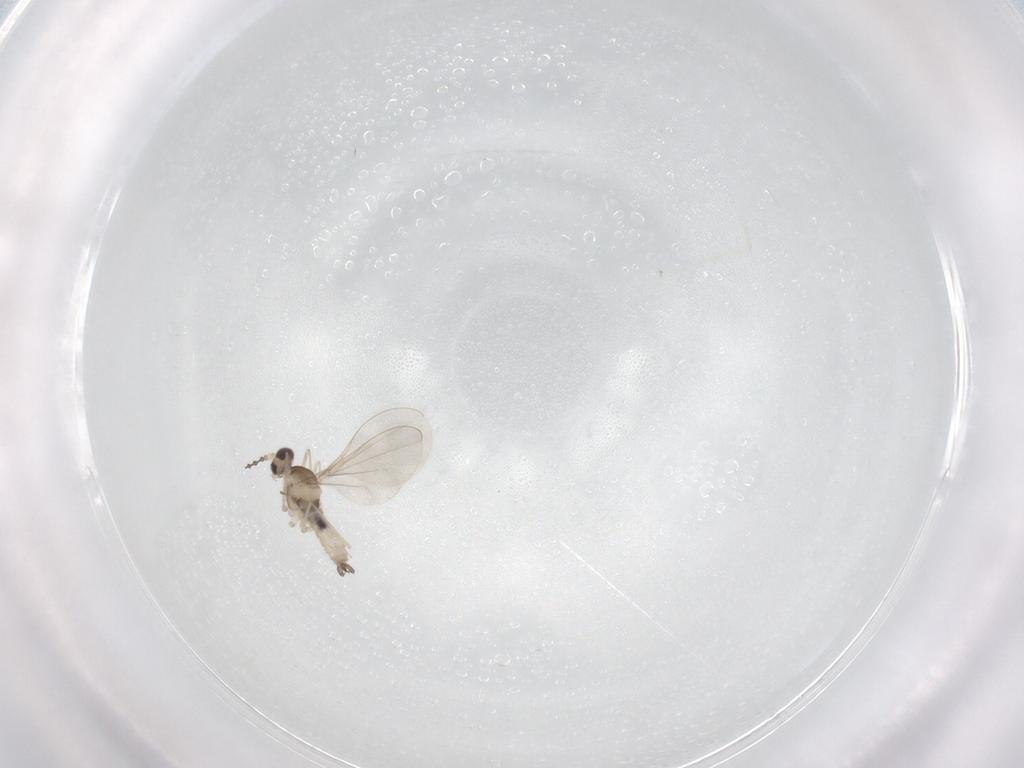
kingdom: Animalia
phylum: Arthropoda
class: Insecta
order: Diptera
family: Cecidomyiidae
